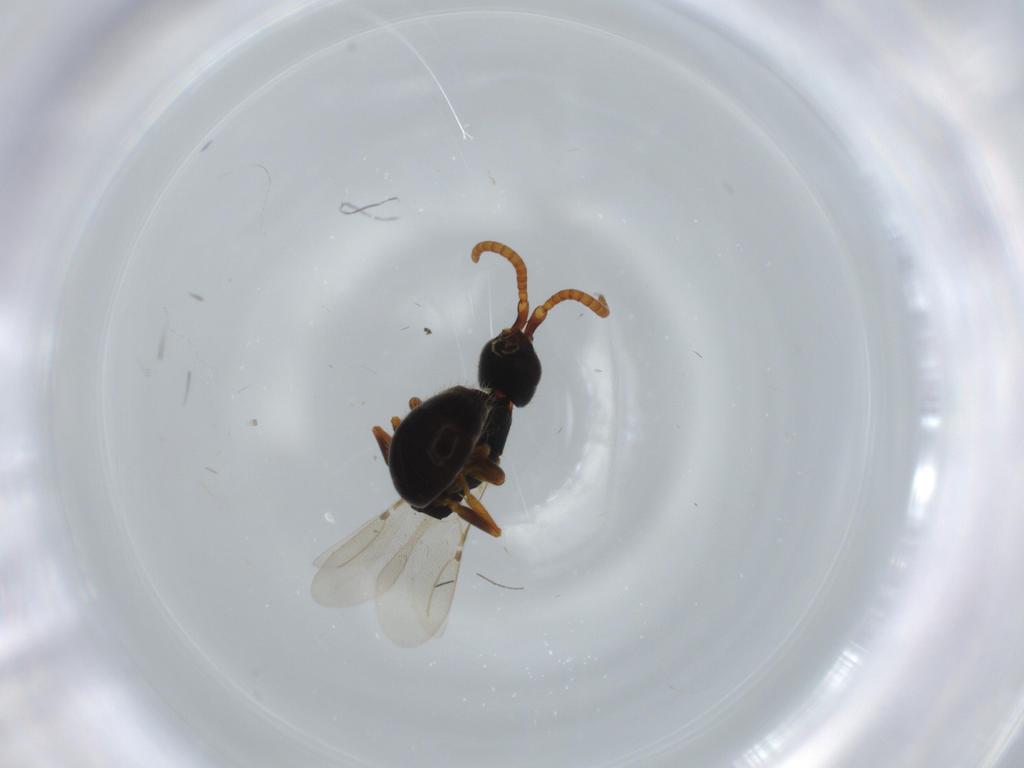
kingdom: Animalia
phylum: Arthropoda
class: Insecta
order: Hymenoptera
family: Bethylidae
